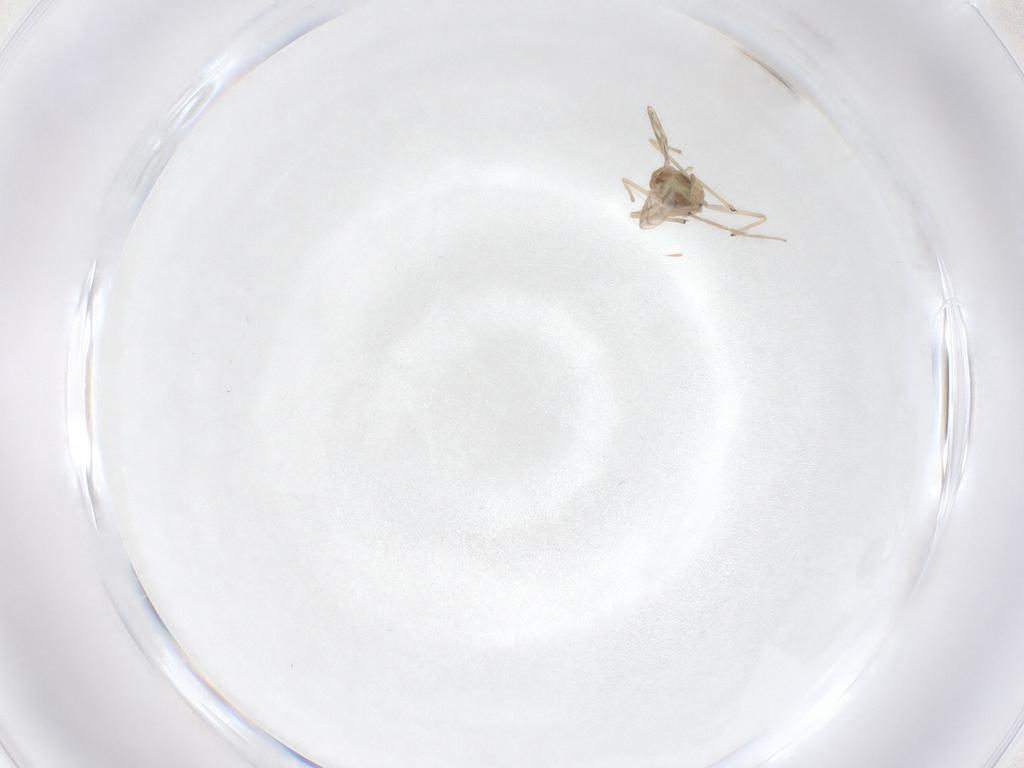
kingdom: Animalia
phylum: Arthropoda
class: Insecta
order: Diptera
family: Chironomidae
